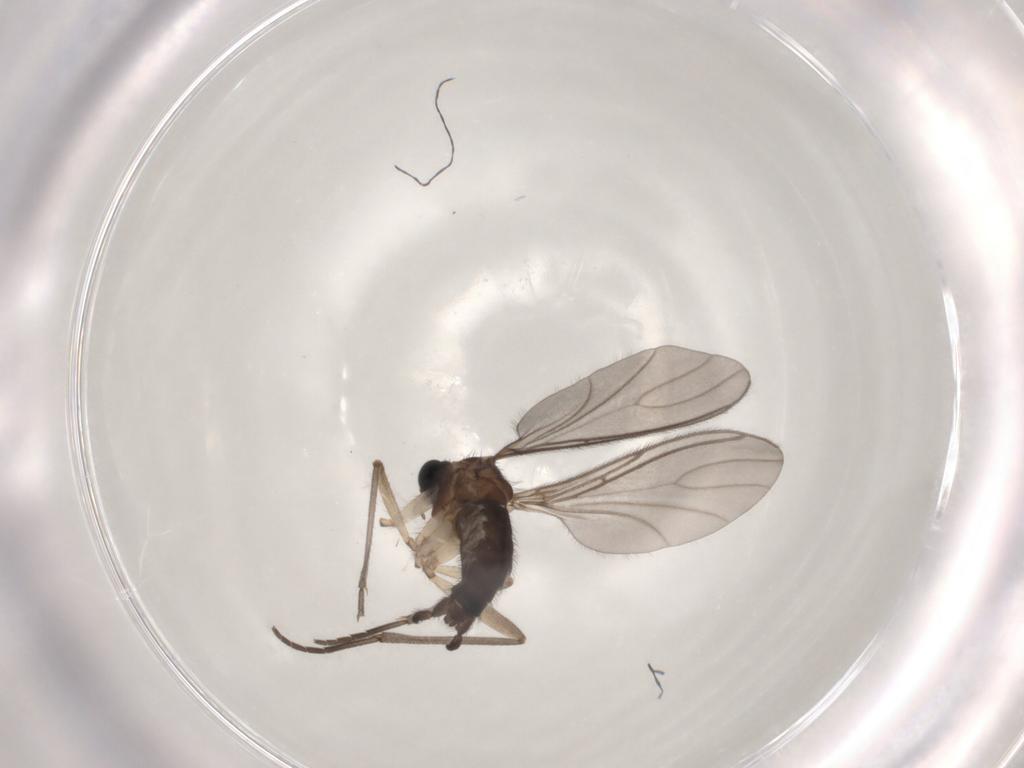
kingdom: Animalia
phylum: Arthropoda
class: Insecta
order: Diptera
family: Sciaridae
